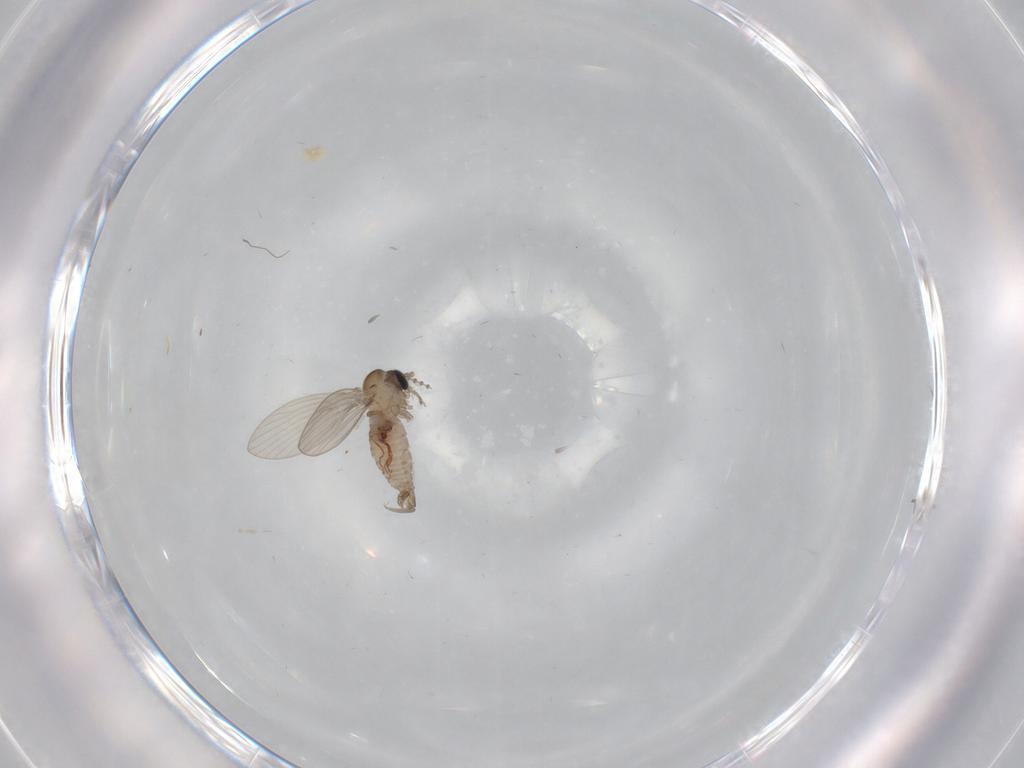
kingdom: Animalia
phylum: Arthropoda
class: Insecta
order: Diptera
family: Psychodidae
